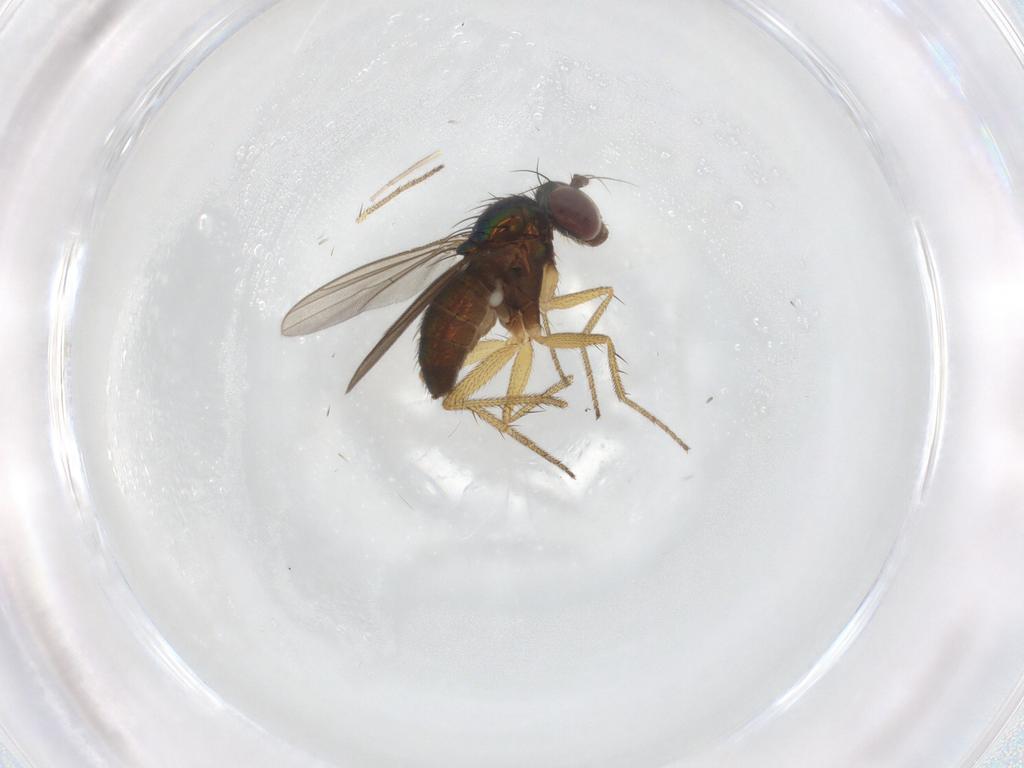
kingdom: Animalia
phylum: Arthropoda
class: Insecta
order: Diptera
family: Dolichopodidae
